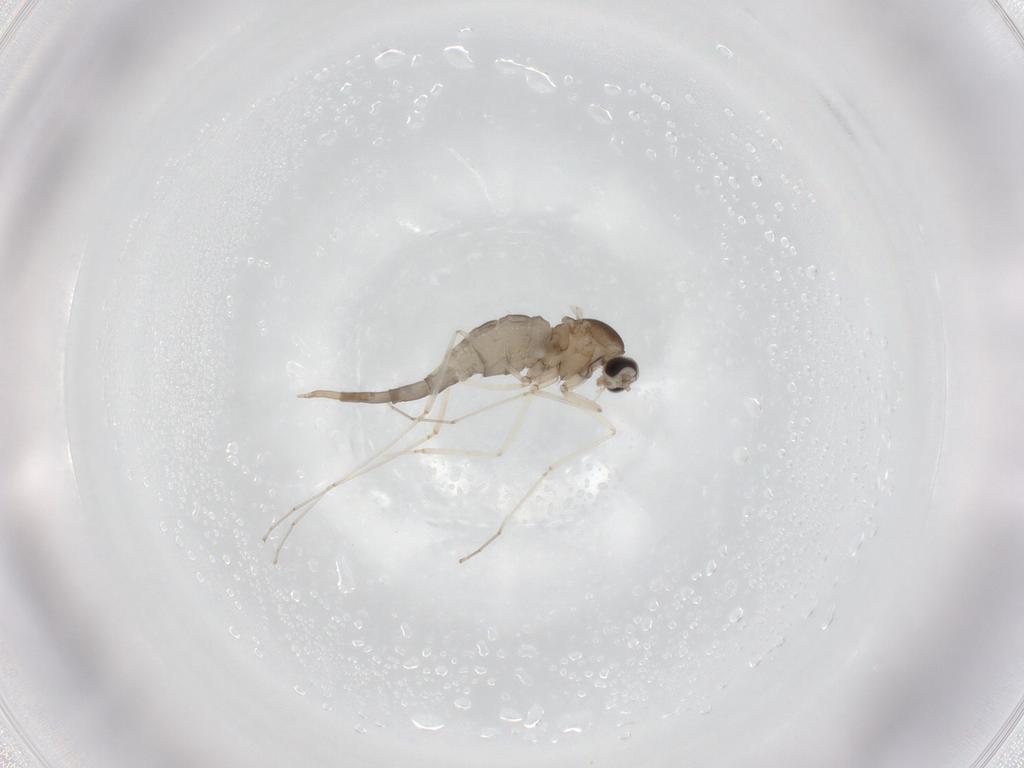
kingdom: Animalia
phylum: Arthropoda
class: Insecta
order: Diptera
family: Cecidomyiidae
